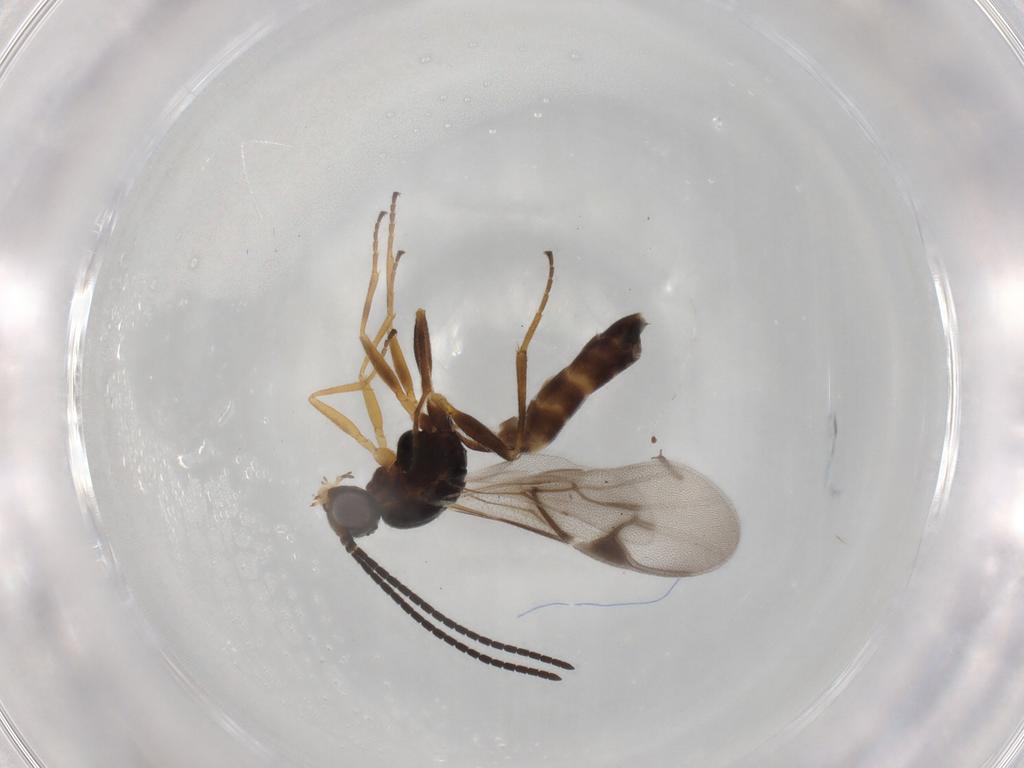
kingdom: Animalia
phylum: Arthropoda
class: Insecta
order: Hymenoptera
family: Braconidae
